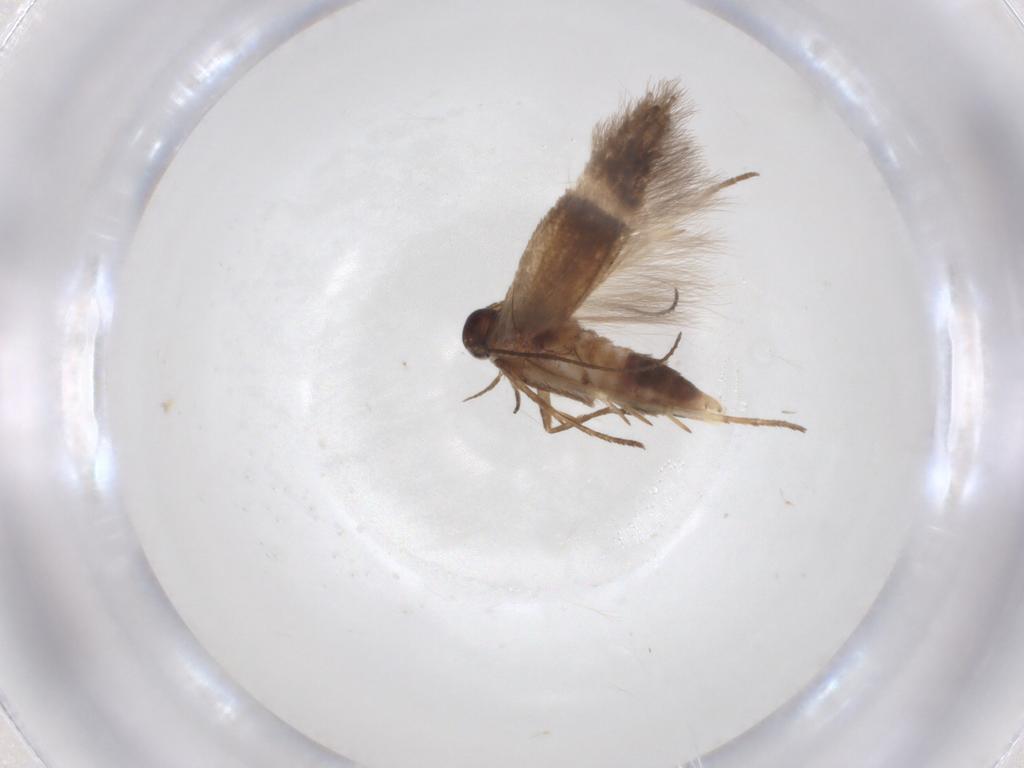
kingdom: Animalia
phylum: Arthropoda
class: Insecta
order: Lepidoptera
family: Gelechiidae
